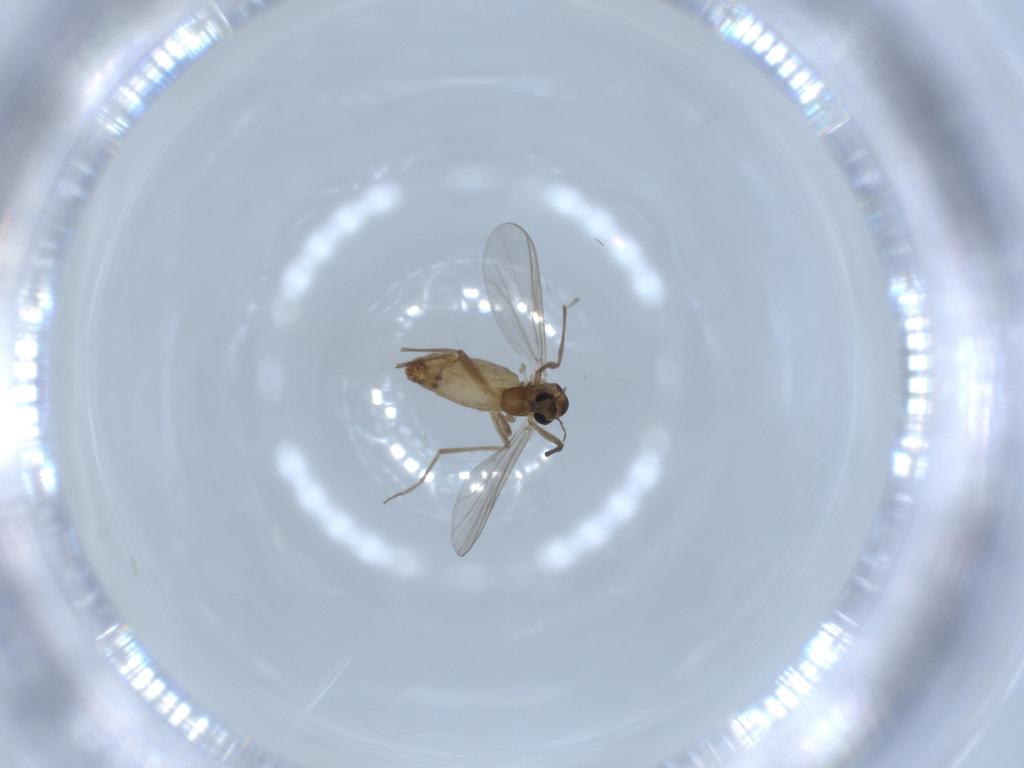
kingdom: Animalia
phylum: Arthropoda
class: Insecta
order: Diptera
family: Chironomidae
